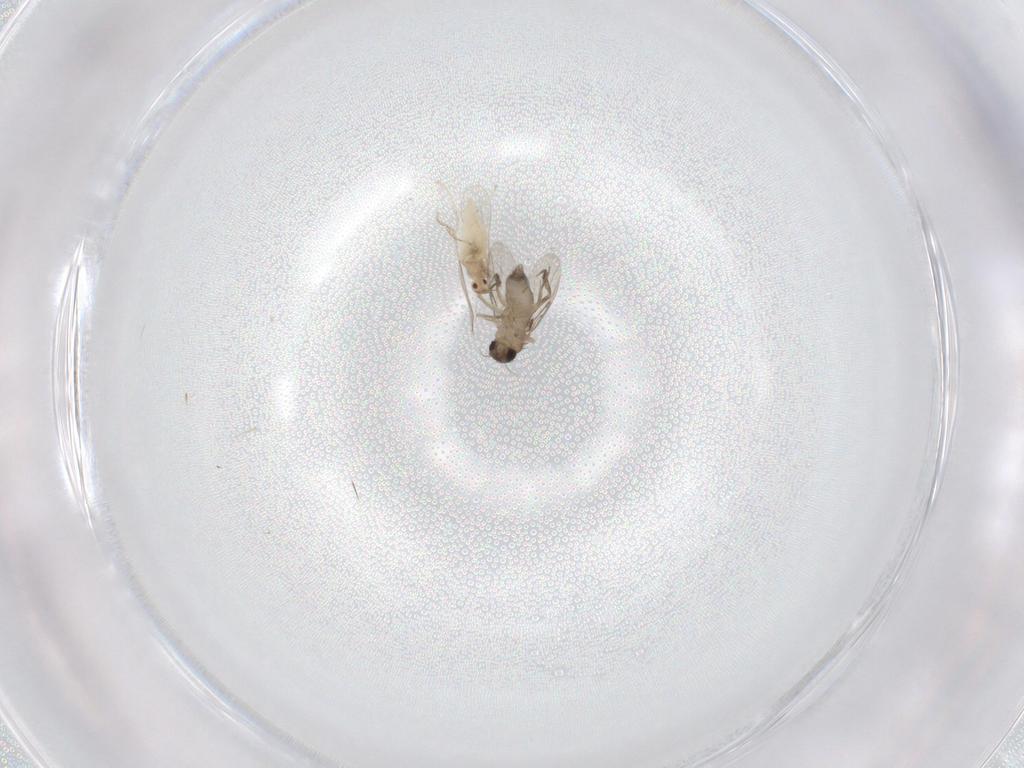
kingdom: Animalia
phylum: Arthropoda
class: Insecta
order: Diptera
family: Phoridae
